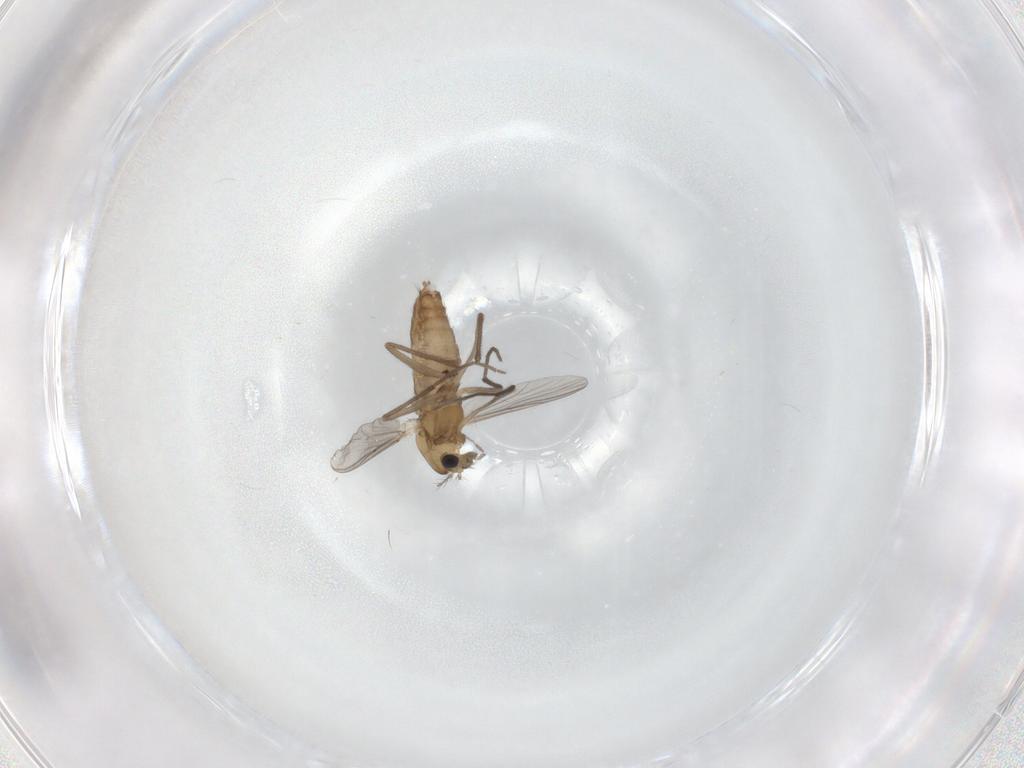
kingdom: Animalia
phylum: Arthropoda
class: Insecta
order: Diptera
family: Chironomidae
